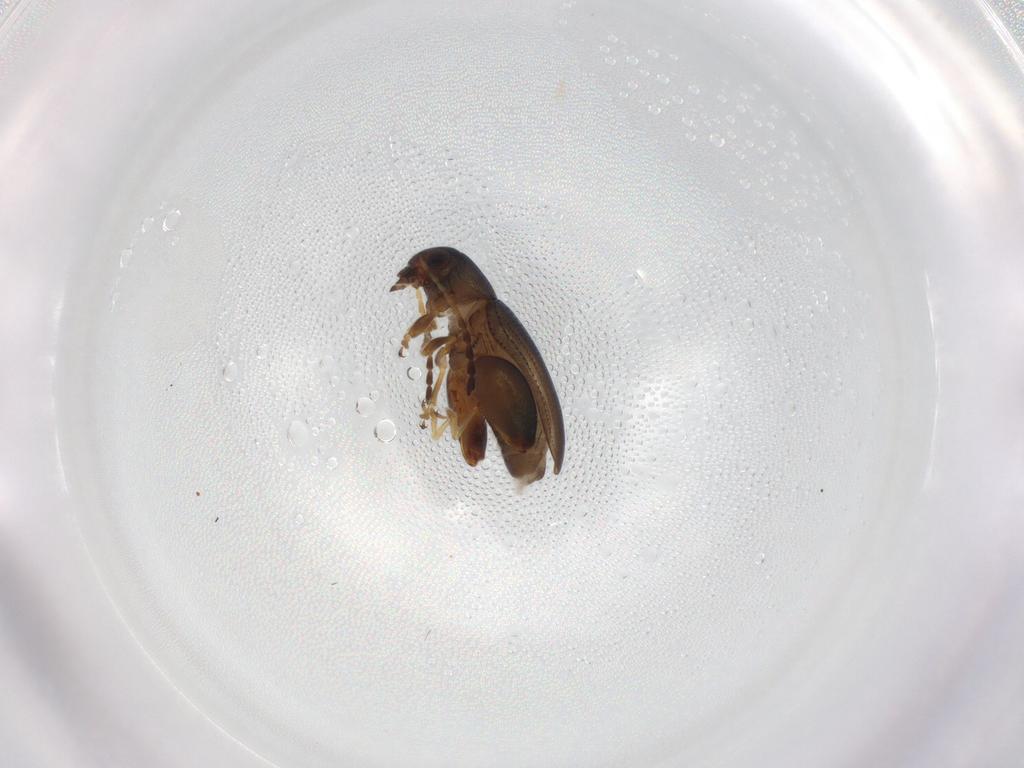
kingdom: Animalia
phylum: Arthropoda
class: Insecta
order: Coleoptera
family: Chrysomelidae
